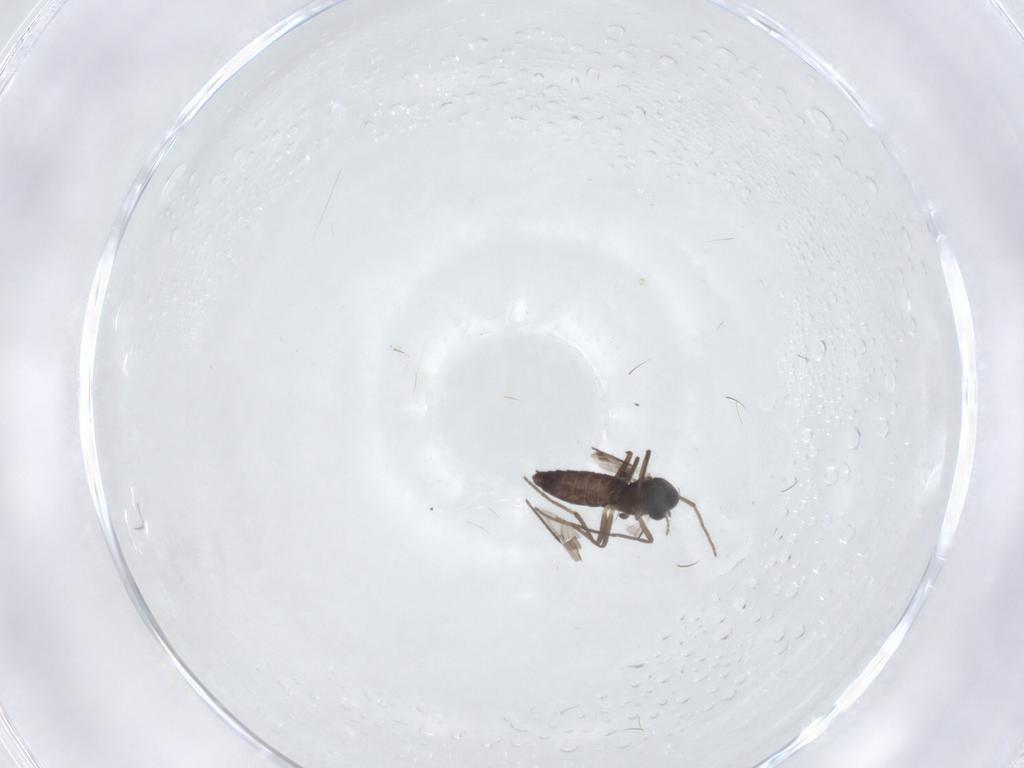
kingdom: Animalia
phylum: Arthropoda
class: Insecta
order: Diptera
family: Chironomidae
